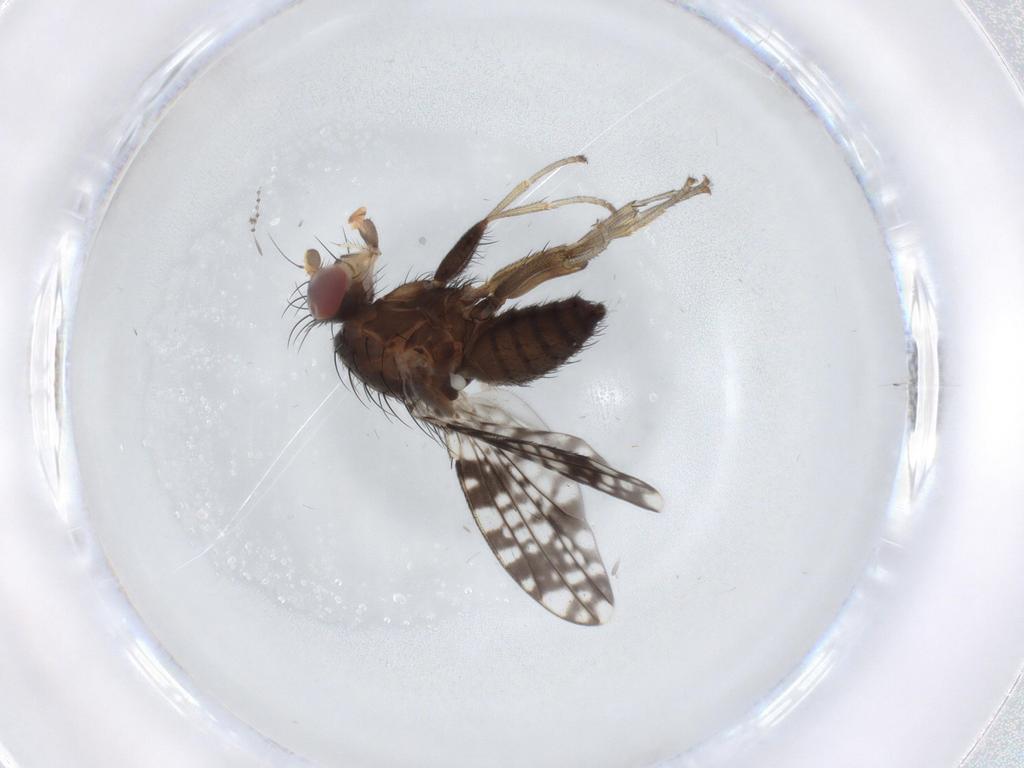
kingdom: Animalia
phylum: Arthropoda
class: Insecta
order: Diptera
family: Tephritidae
